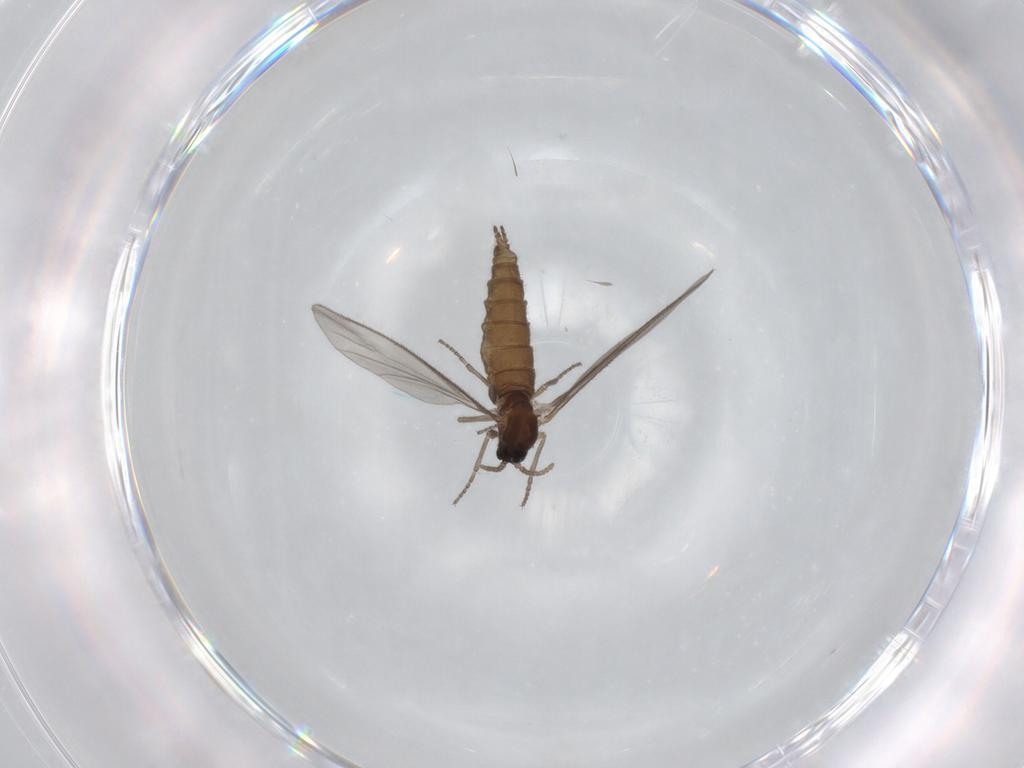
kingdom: Animalia
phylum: Arthropoda
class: Insecta
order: Diptera
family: Sciaridae
